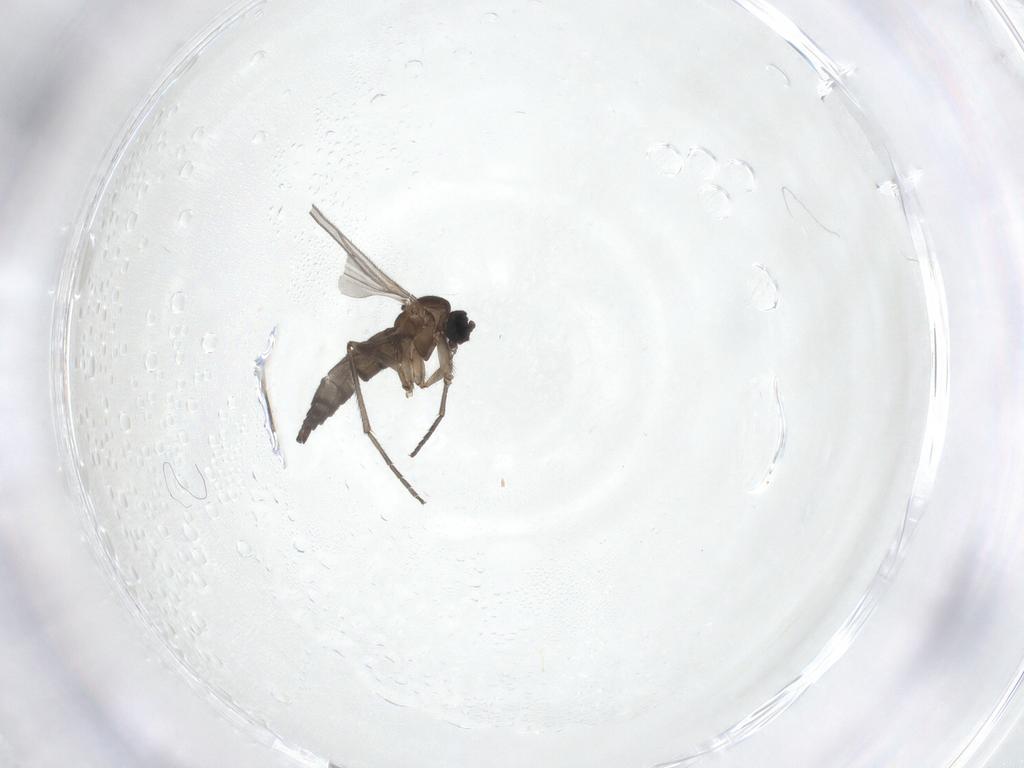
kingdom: Animalia
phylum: Arthropoda
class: Insecta
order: Diptera
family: Sciaridae
